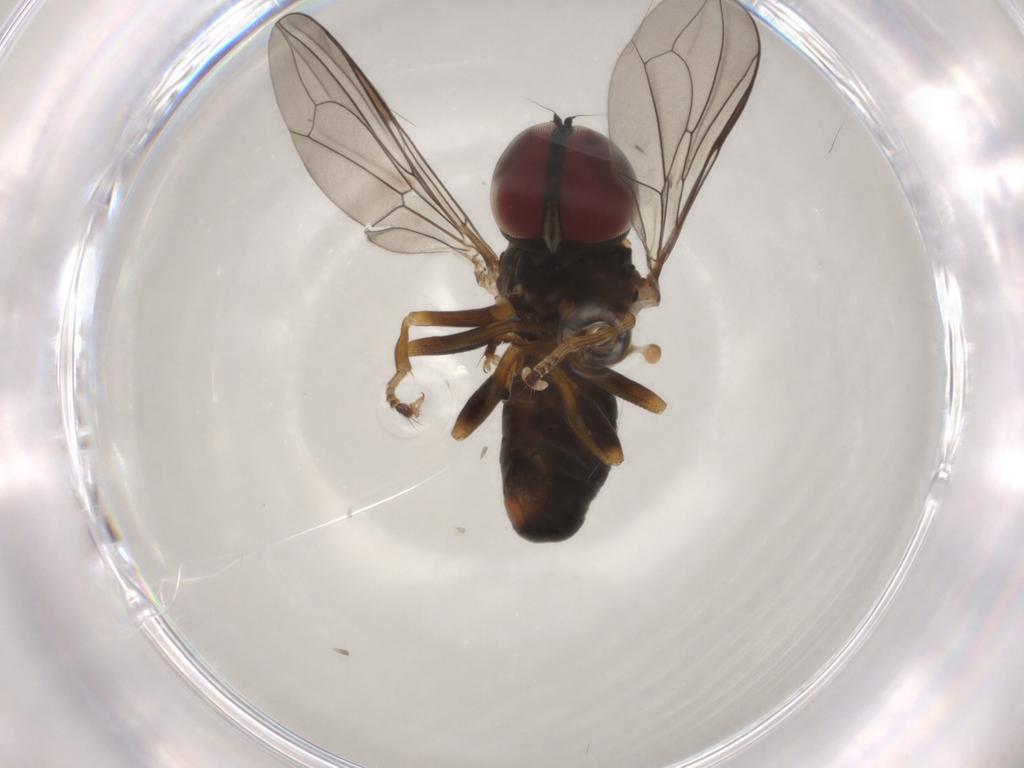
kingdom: Animalia
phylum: Arthropoda
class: Insecta
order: Diptera
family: Pipunculidae
